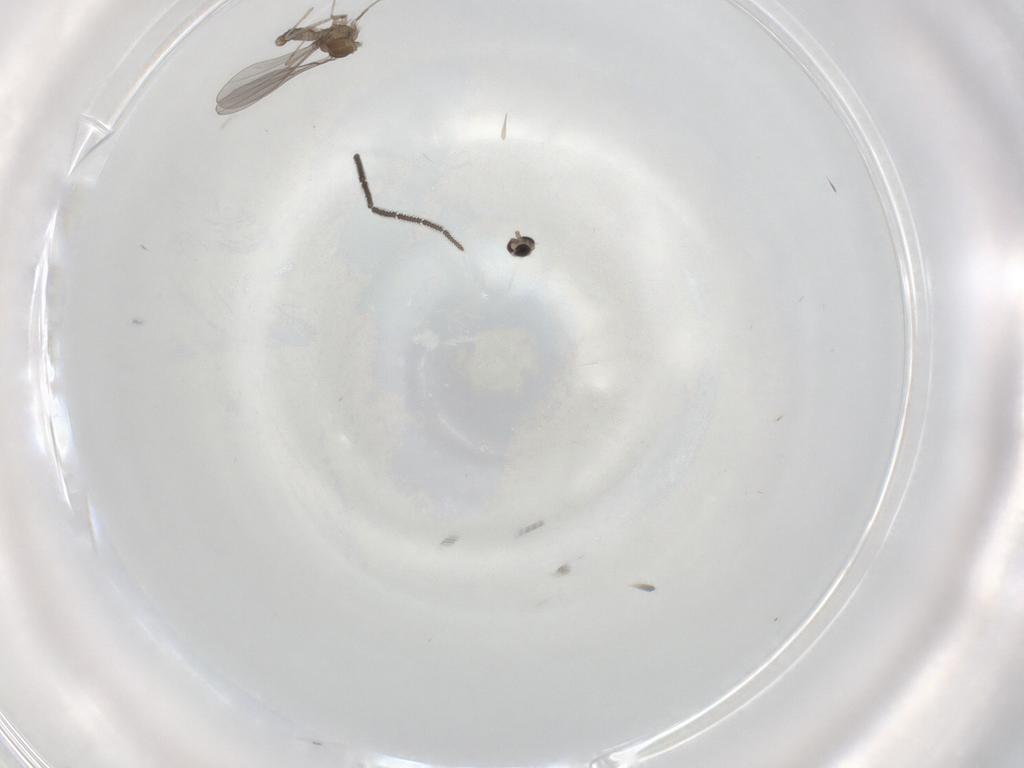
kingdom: Animalia
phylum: Arthropoda
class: Insecta
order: Diptera
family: Cecidomyiidae
